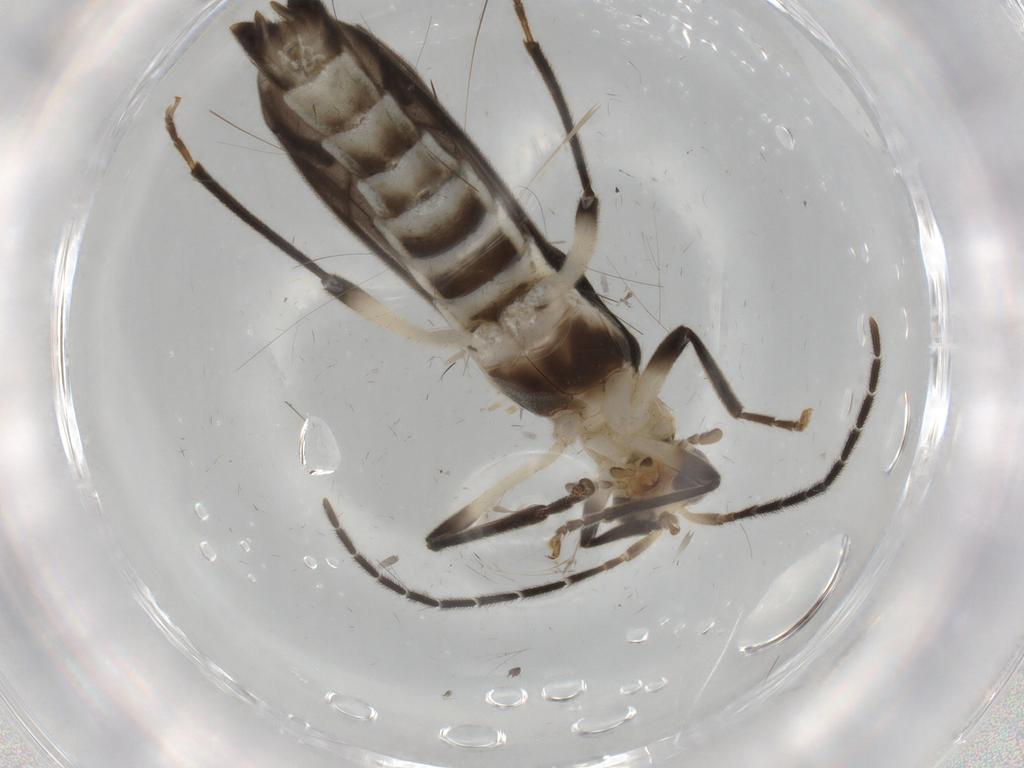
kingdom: Animalia
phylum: Arthropoda
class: Insecta
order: Coleoptera
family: Cantharidae
